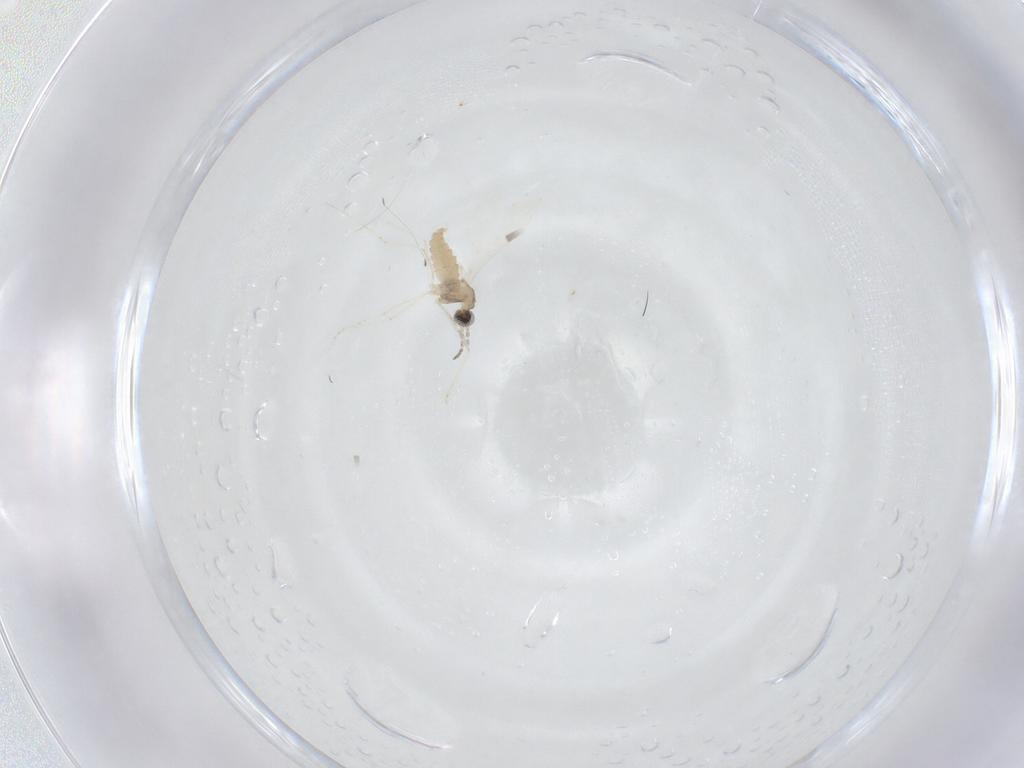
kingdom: Animalia
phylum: Arthropoda
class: Insecta
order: Diptera
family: Cecidomyiidae
